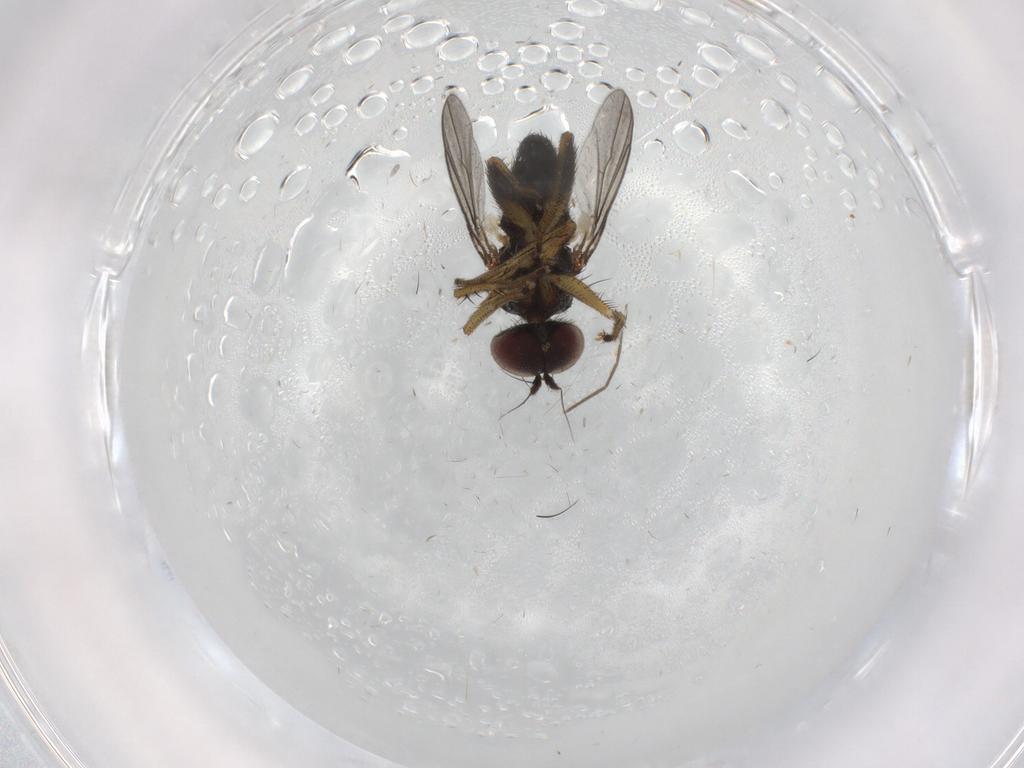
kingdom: Animalia
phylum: Arthropoda
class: Insecta
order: Diptera
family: Dolichopodidae
